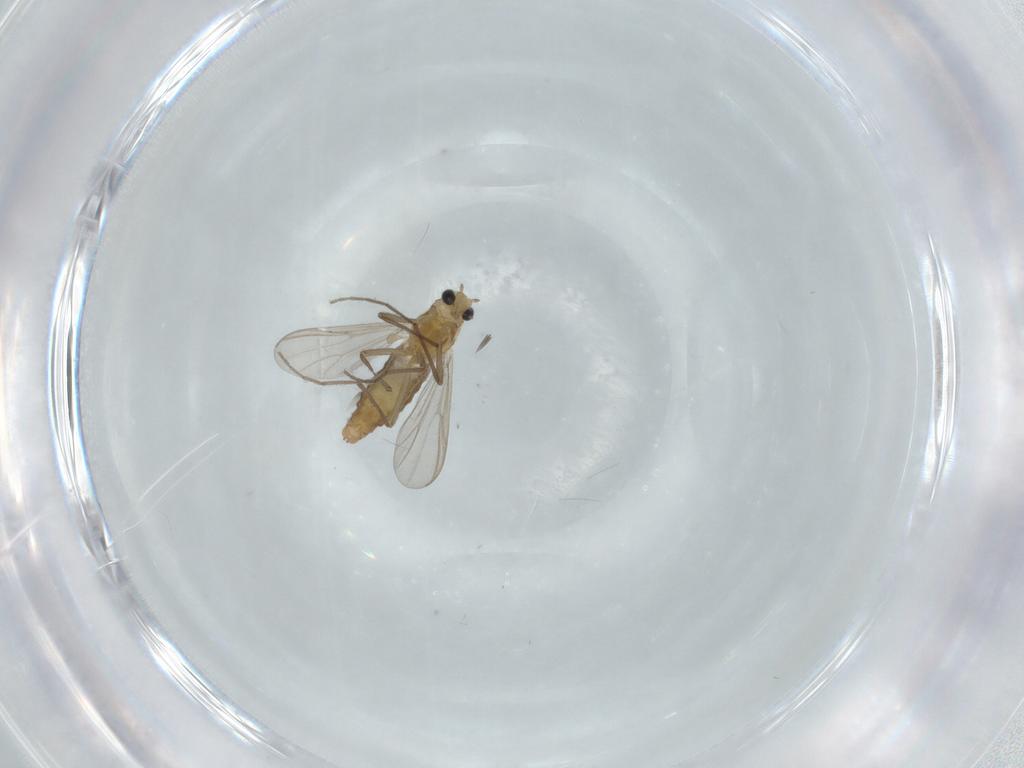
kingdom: Animalia
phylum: Arthropoda
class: Insecta
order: Diptera
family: Chironomidae
